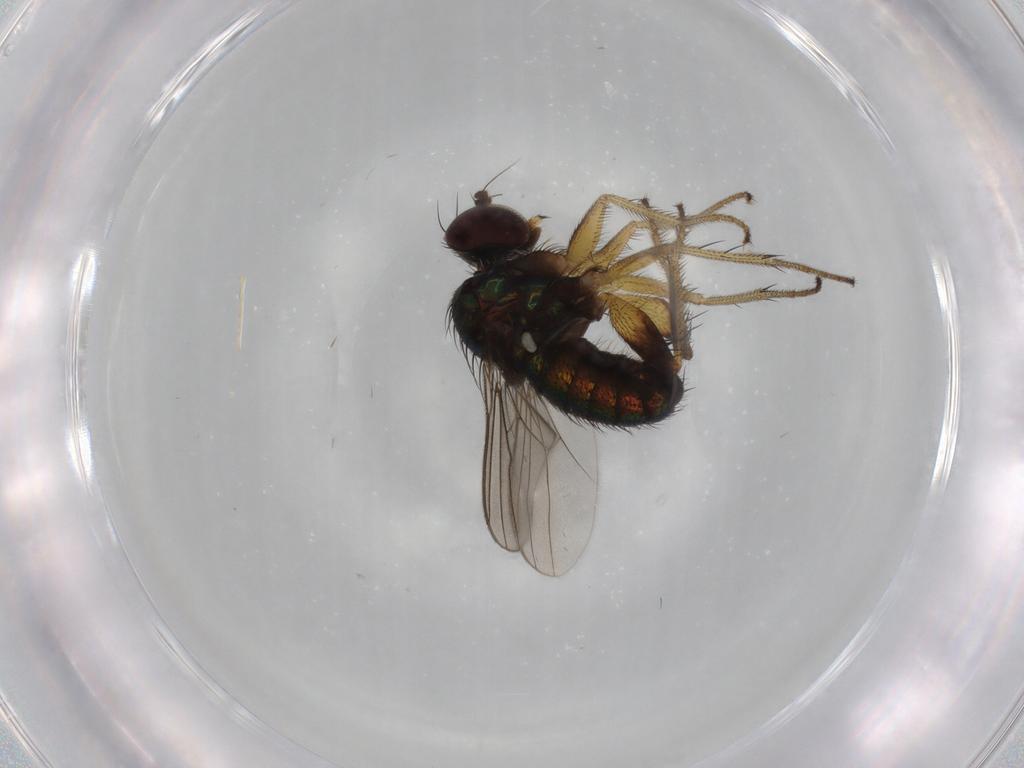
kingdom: Animalia
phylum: Arthropoda
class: Insecta
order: Diptera
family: Dolichopodidae
